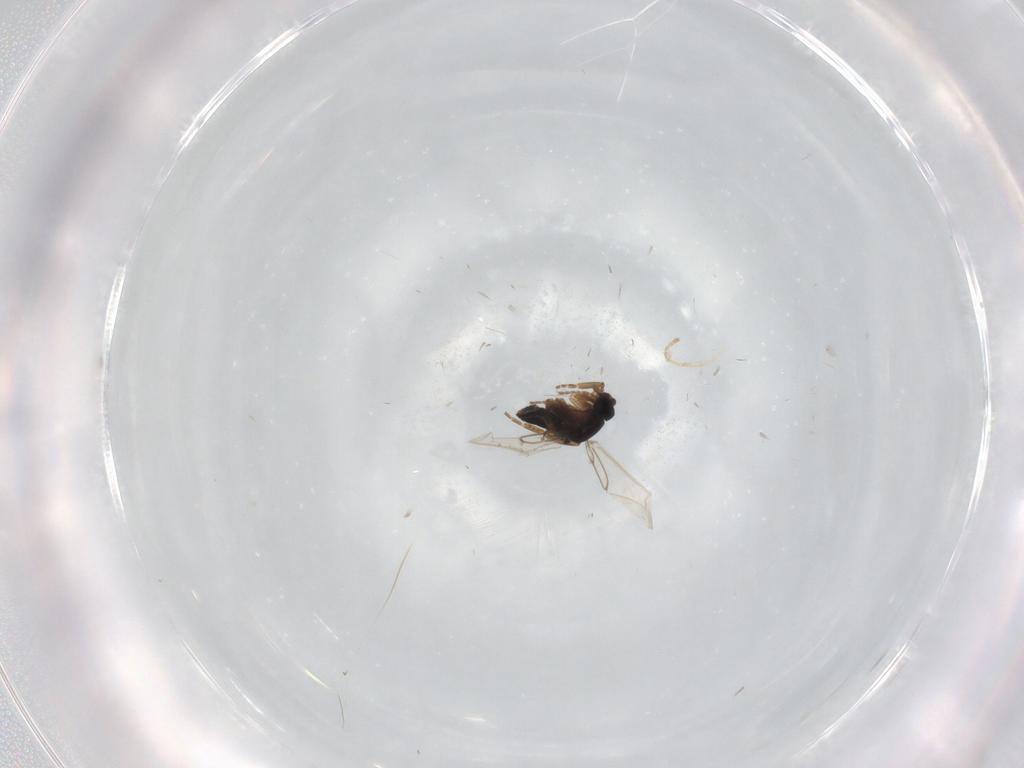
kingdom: Animalia
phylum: Arthropoda
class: Insecta
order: Diptera
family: Phoridae
